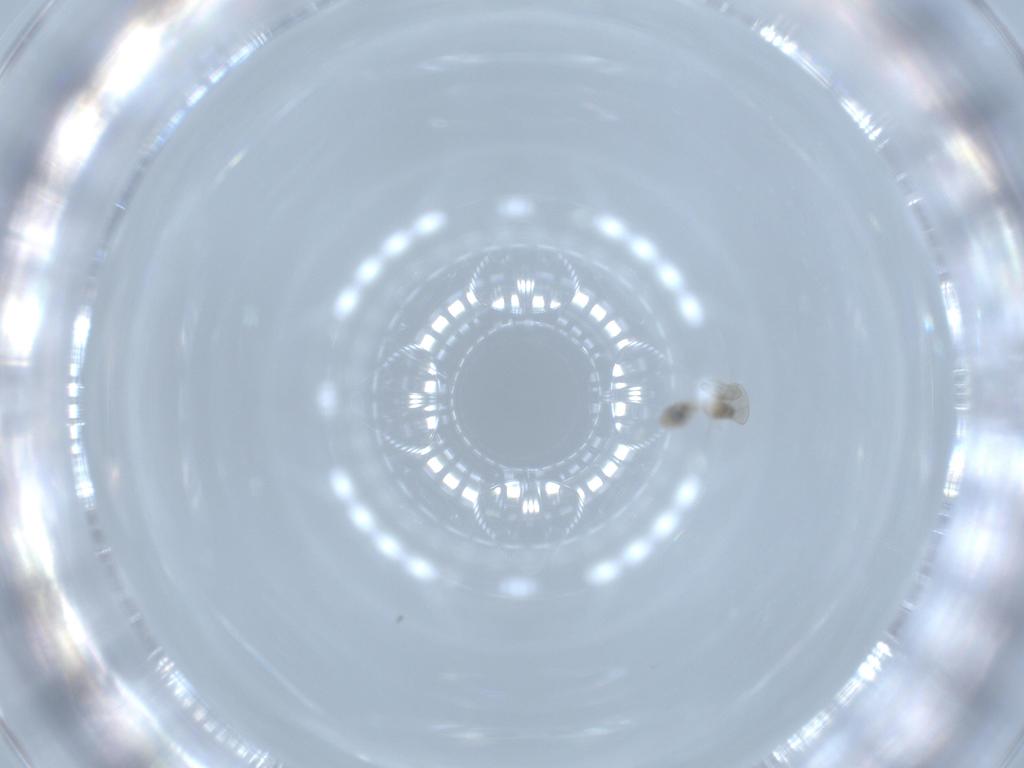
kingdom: Animalia
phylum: Arthropoda
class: Insecta
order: Diptera
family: Cecidomyiidae
